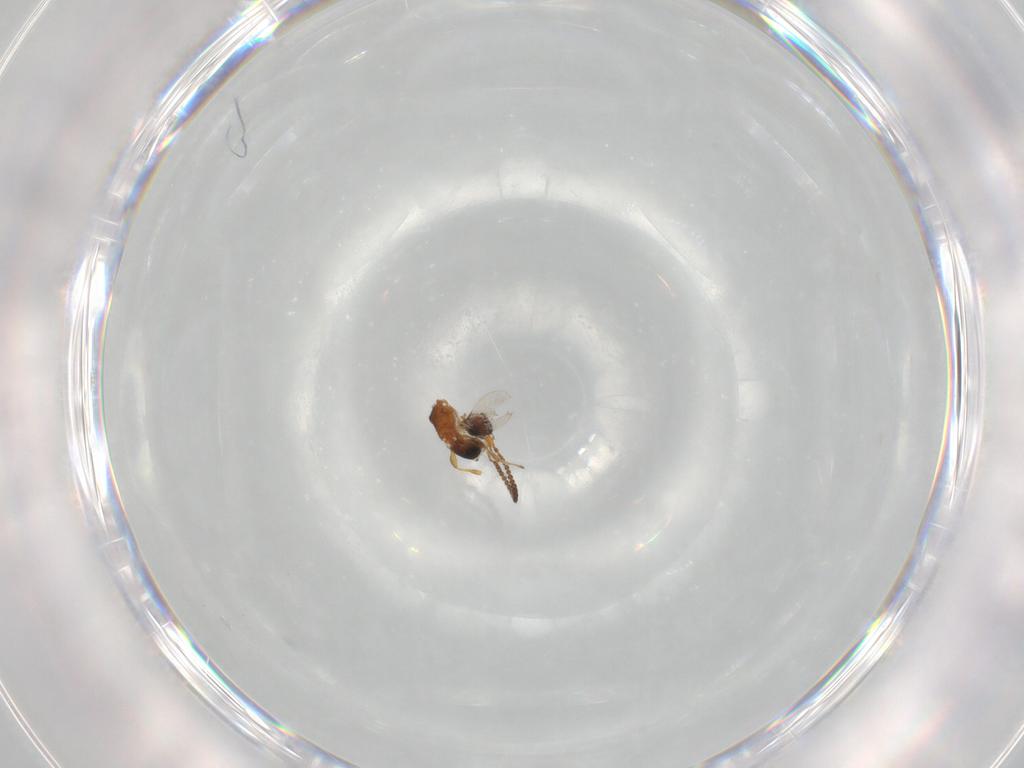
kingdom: Animalia
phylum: Arthropoda
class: Insecta
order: Hymenoptera
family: Diapriidae
